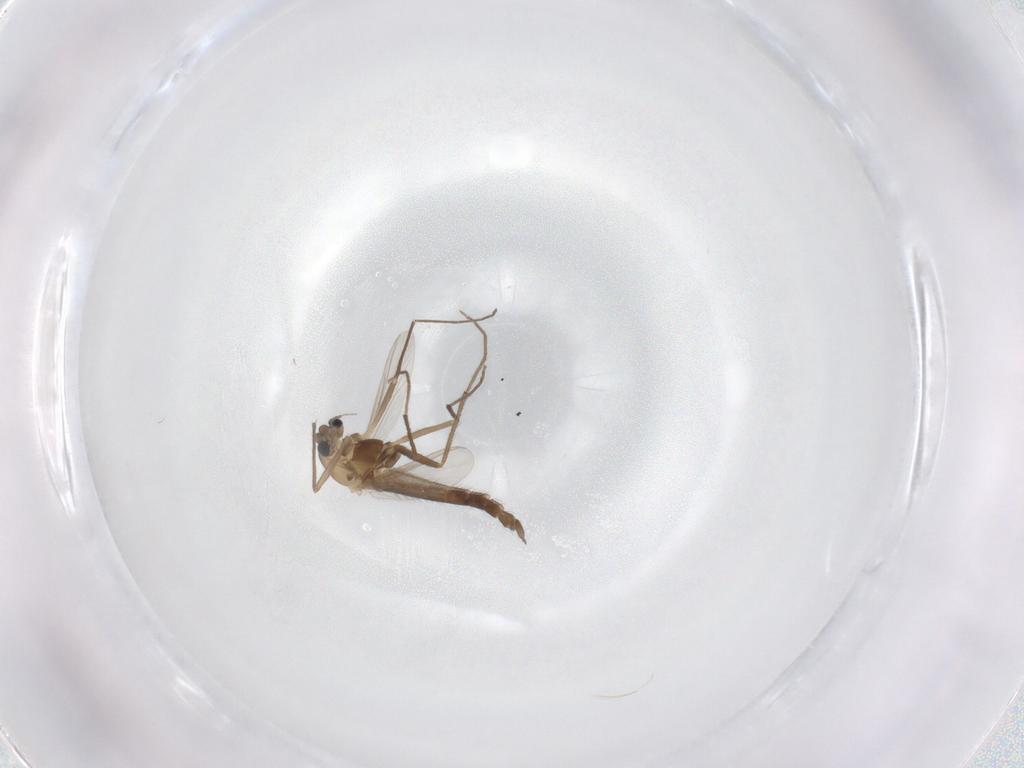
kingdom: Animalia
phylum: Arthropoda
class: Insecta
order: Diptera
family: Chironomidae
